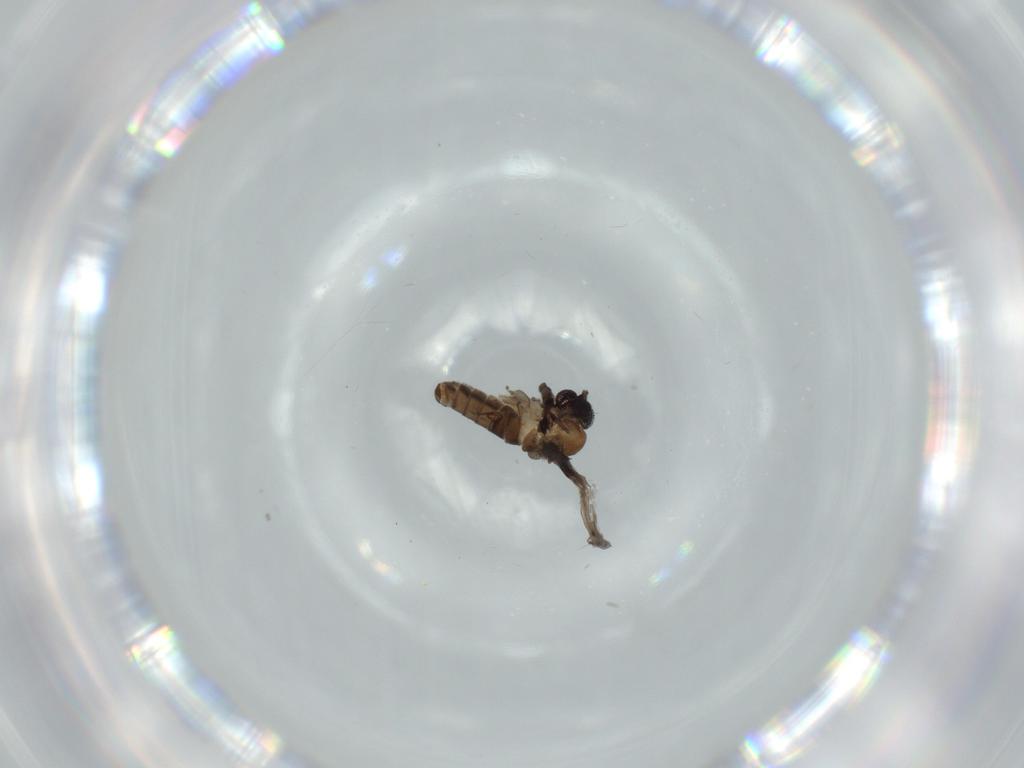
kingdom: Animalia
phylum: Arthropoda
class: Insecta
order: Diptera
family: Psychodidae
